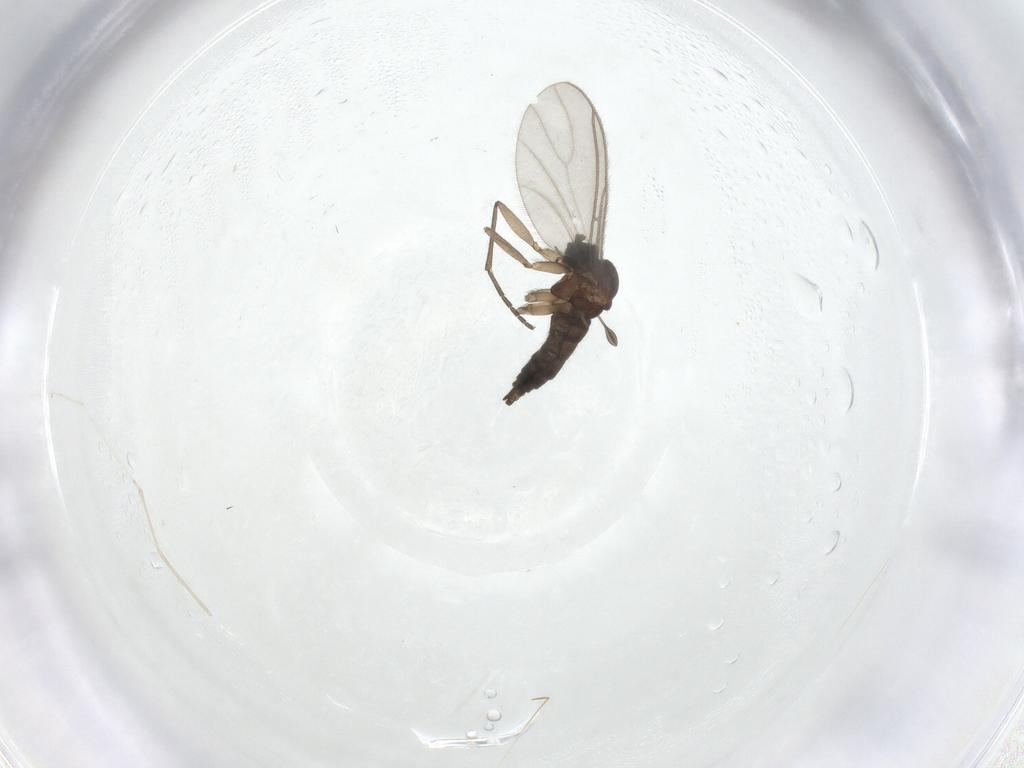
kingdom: Animalia
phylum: Arthropoda
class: Insecta
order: Diptera
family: Sciaridae
